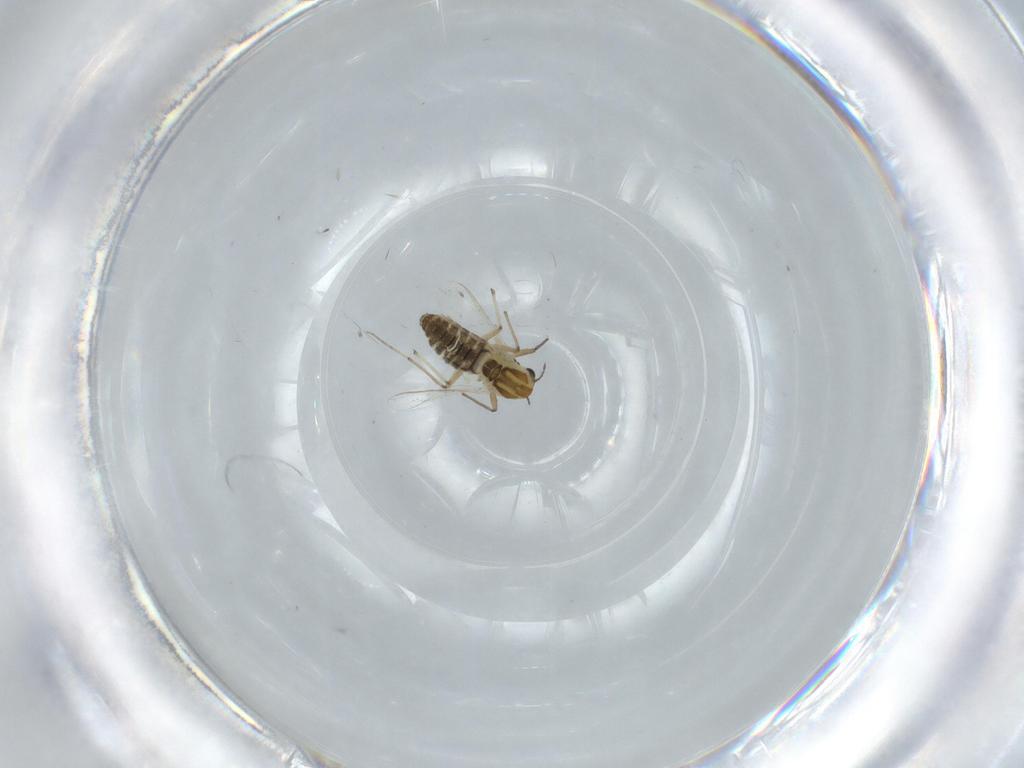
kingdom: Animalia
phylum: Arthropoda
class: Insecta
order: Diptera
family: Chironomidae
